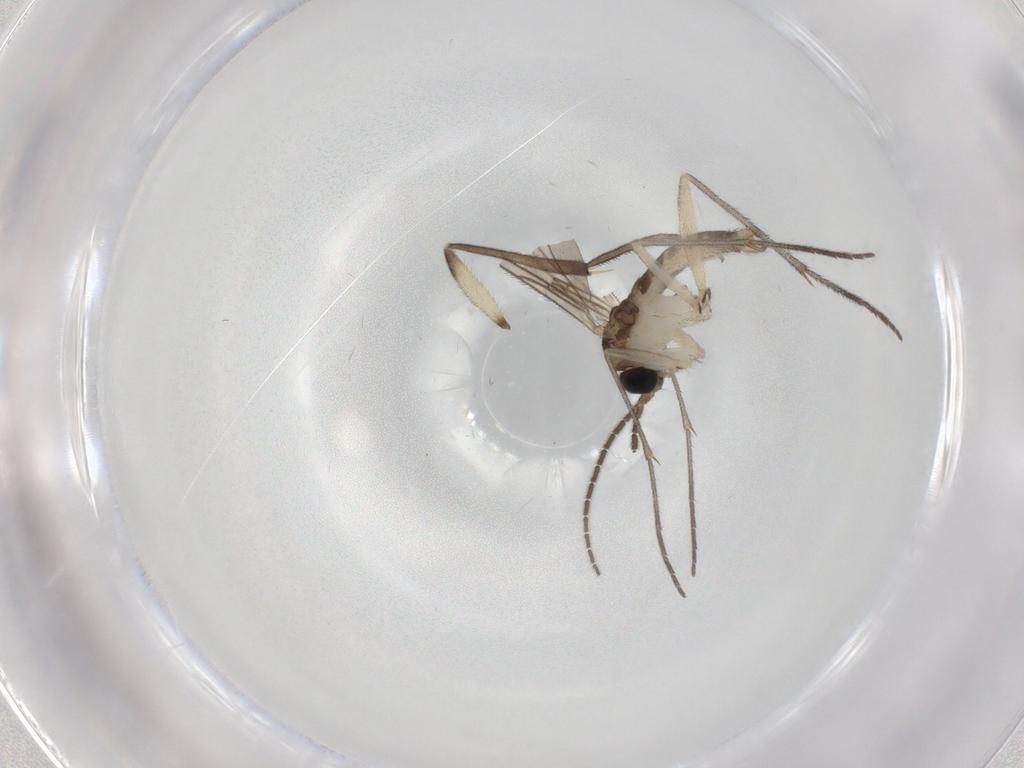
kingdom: Animalia
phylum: Arthropoda
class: Insecta
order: Diptera
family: Sciaridae
